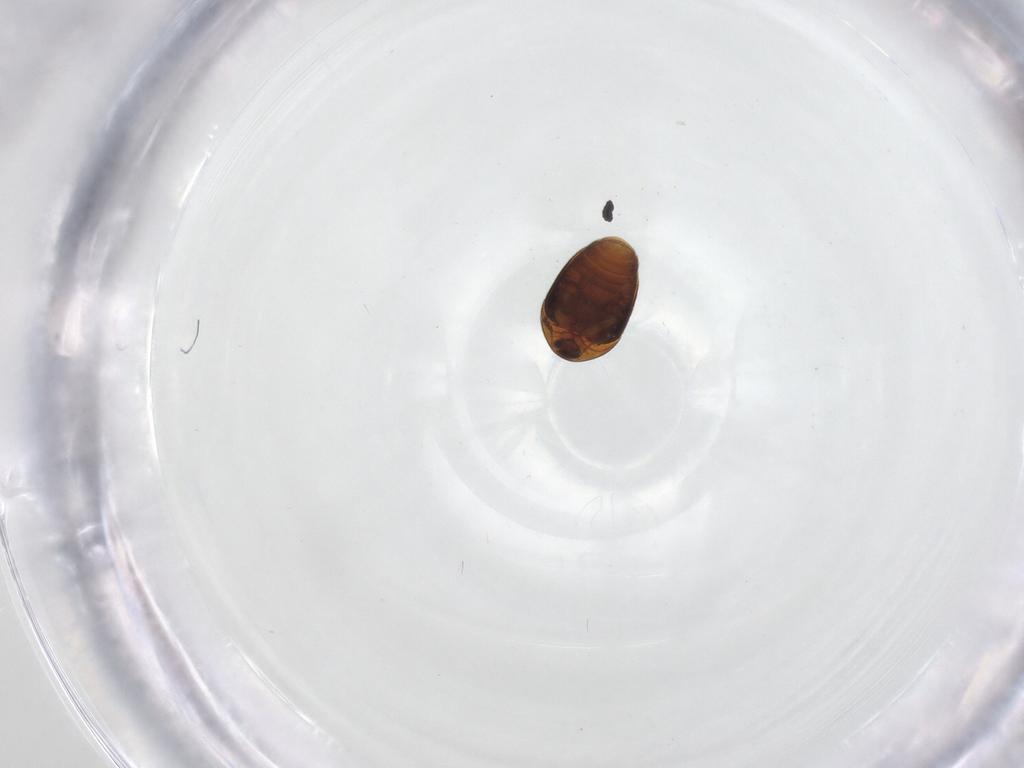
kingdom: Animalia
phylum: Arthropoda
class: Insecta
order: Coleoptera
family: Corylophidae
